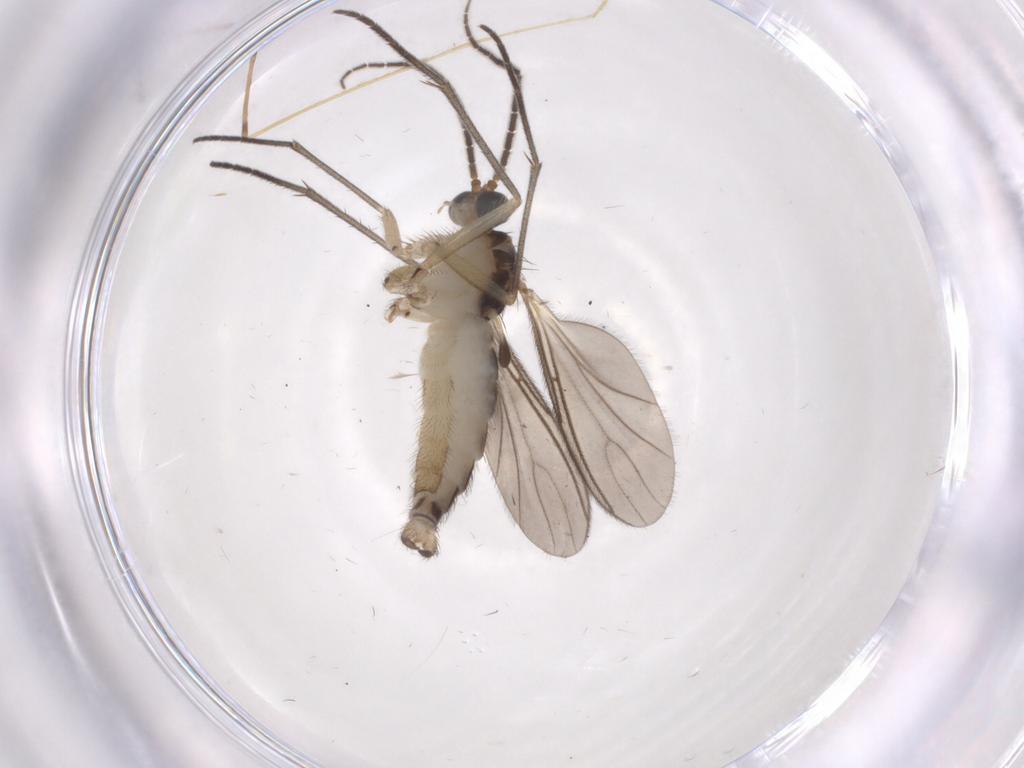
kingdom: Animalia
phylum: Arthropoda
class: Insecta
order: Diptera
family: Sciaridae
